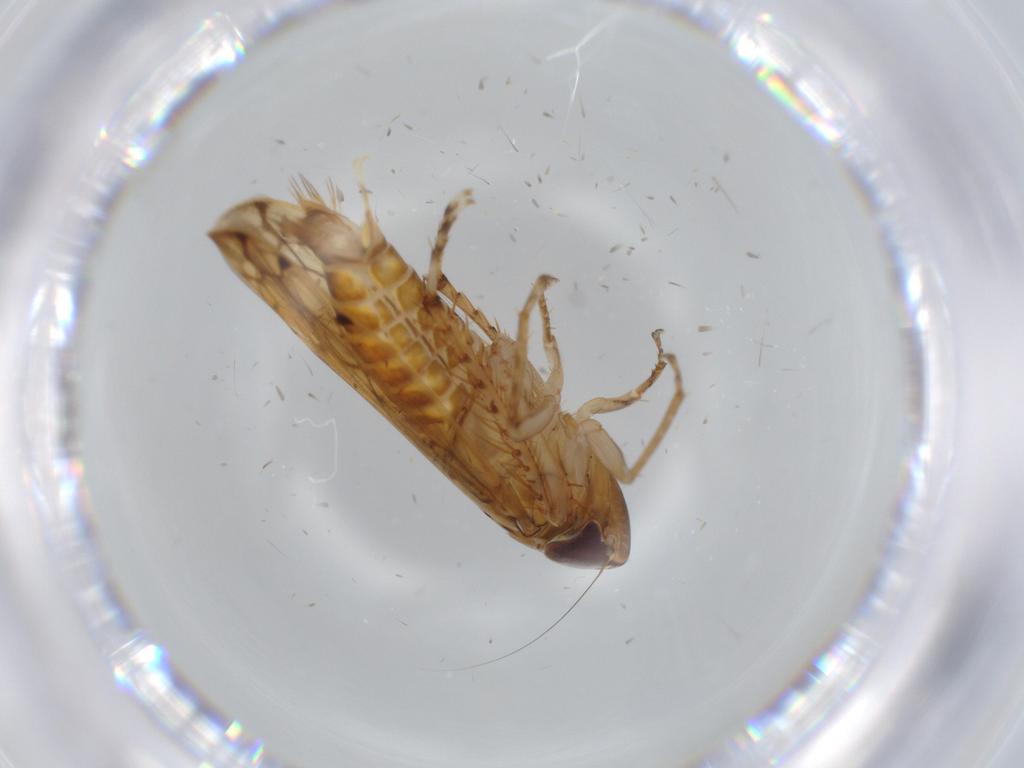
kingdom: Animalia
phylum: Arthropoda
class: Insecta
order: Hemiptera
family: Cicadellidae
